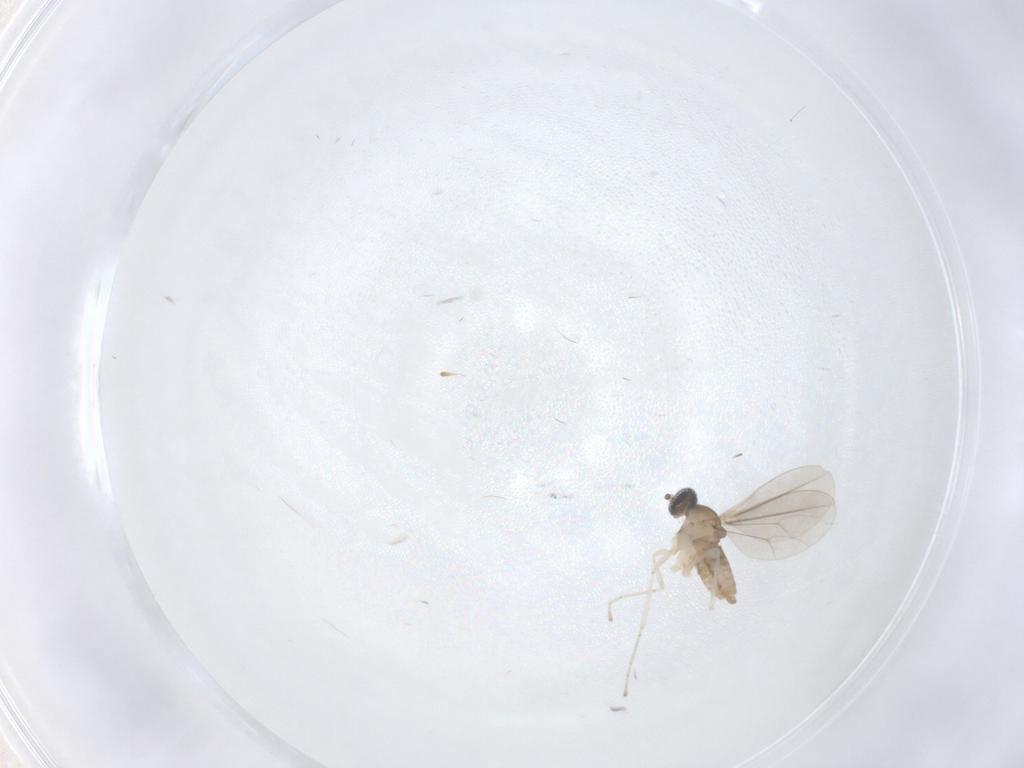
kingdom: Animalia
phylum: Arthropoda
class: Insecta
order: Diptera
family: Cecidomyiidae
